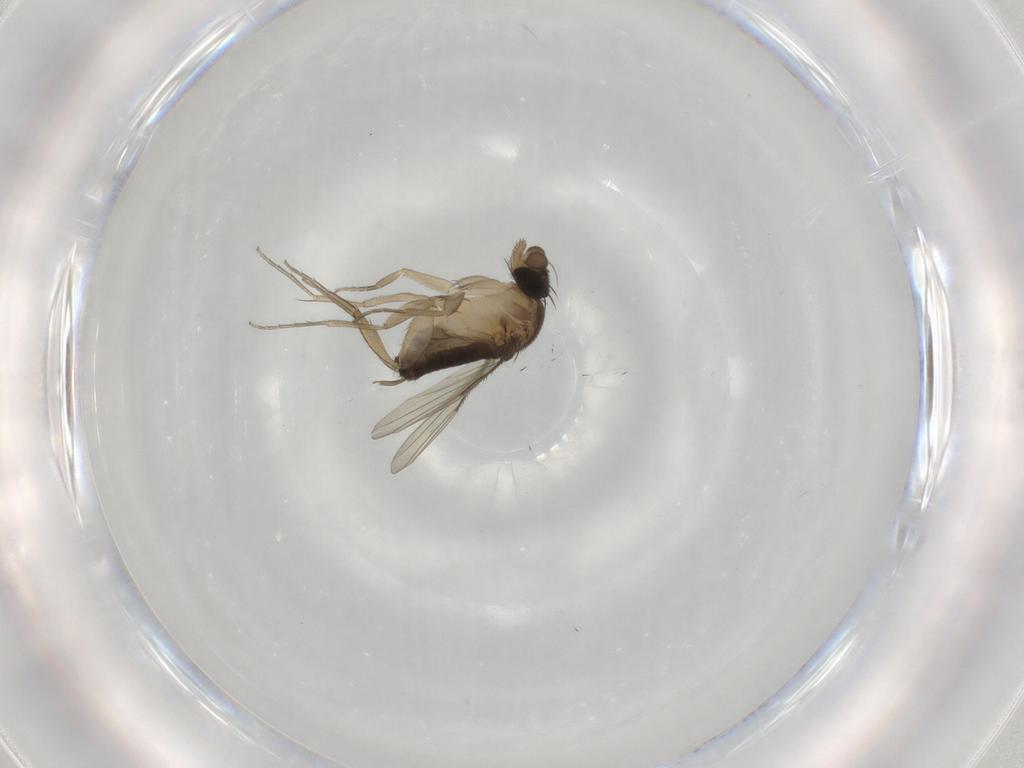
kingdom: Animalia
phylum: Arthropoda
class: Insecta
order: Diptera
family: Phoridae
